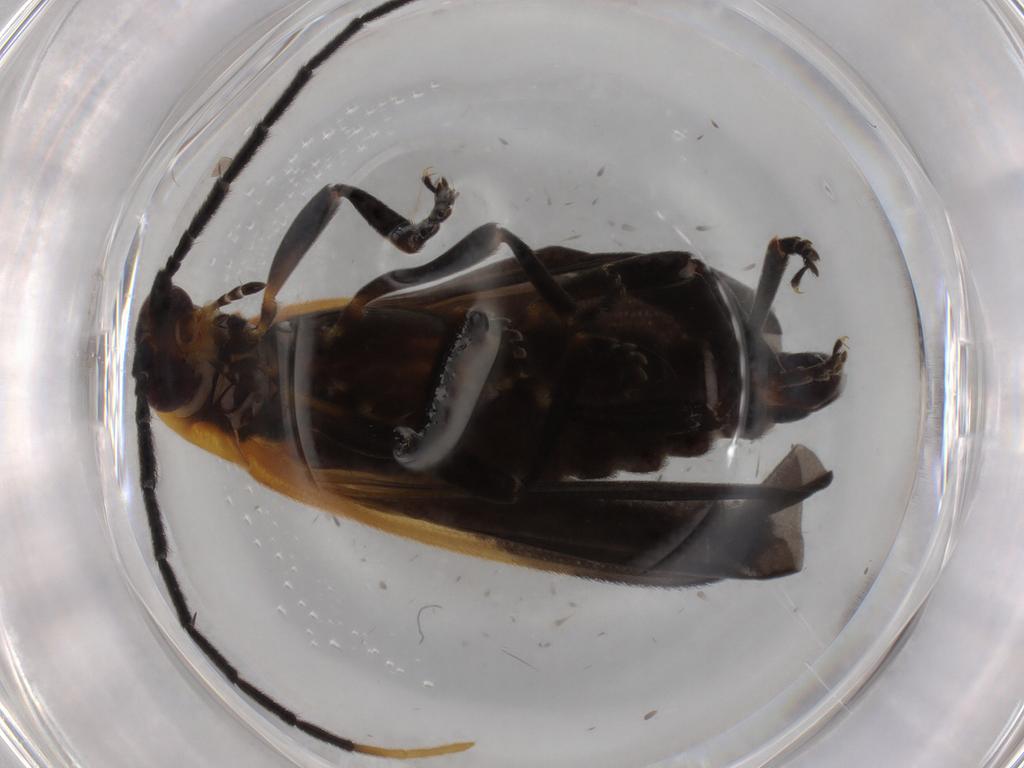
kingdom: Animalia
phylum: Arthropoda
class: Insecta
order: Coleoptera
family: Lycidae
